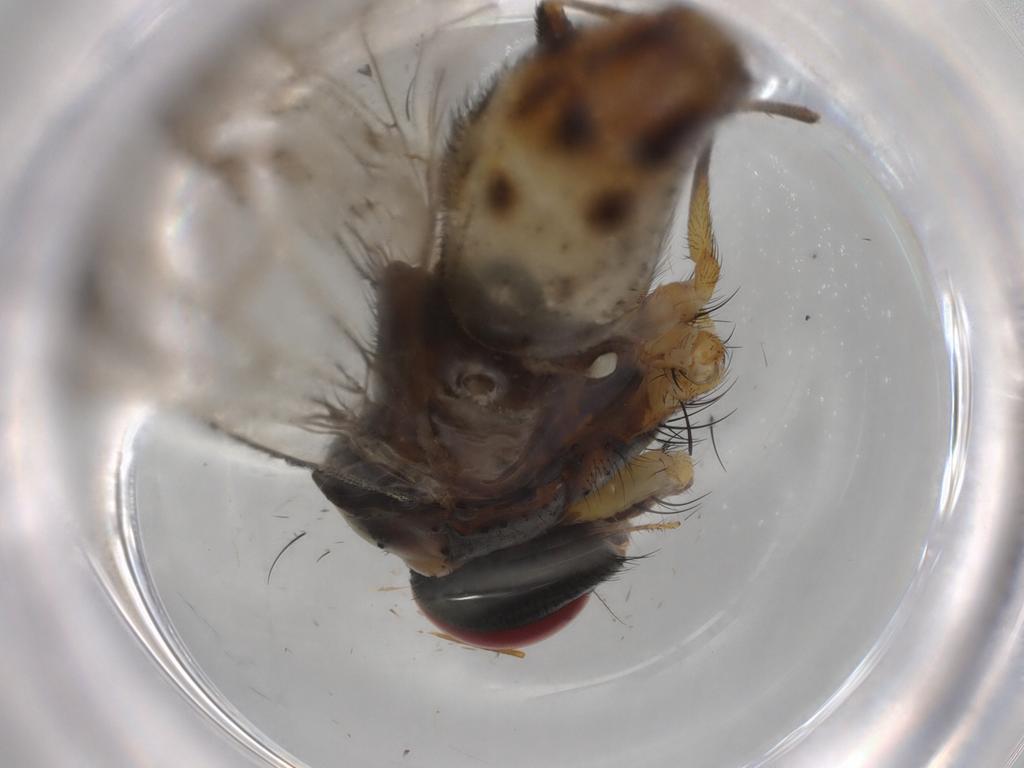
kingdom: Animalia
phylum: Arthropoda
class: Insecta
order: Diptera
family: Muscidae
